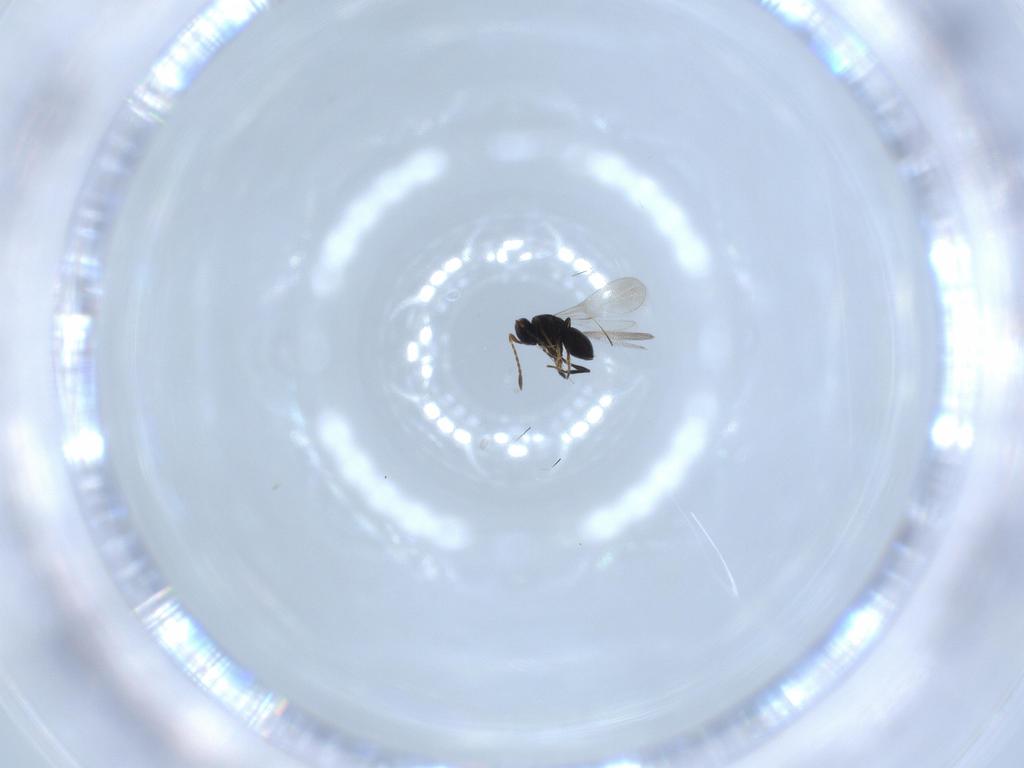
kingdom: Animalia
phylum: Arthropoda
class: Insecta
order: Hymenoptera
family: Platygastridae
